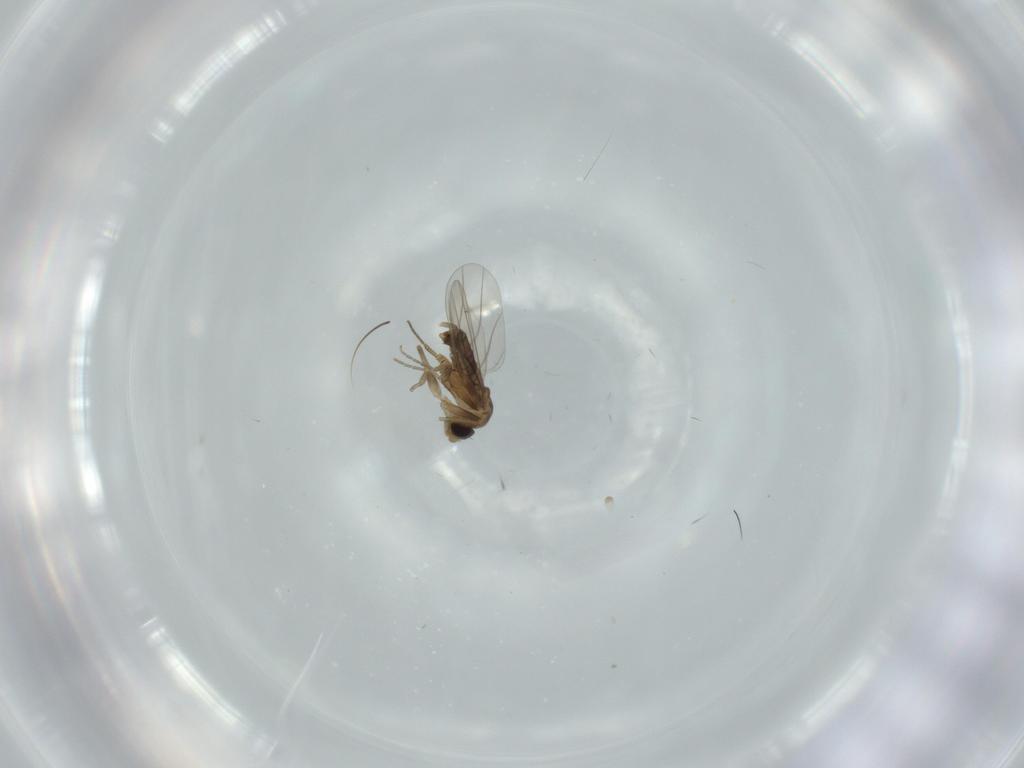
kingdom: Animalia
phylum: Arthropoda
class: Insecta
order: Diptera
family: Phoridae
